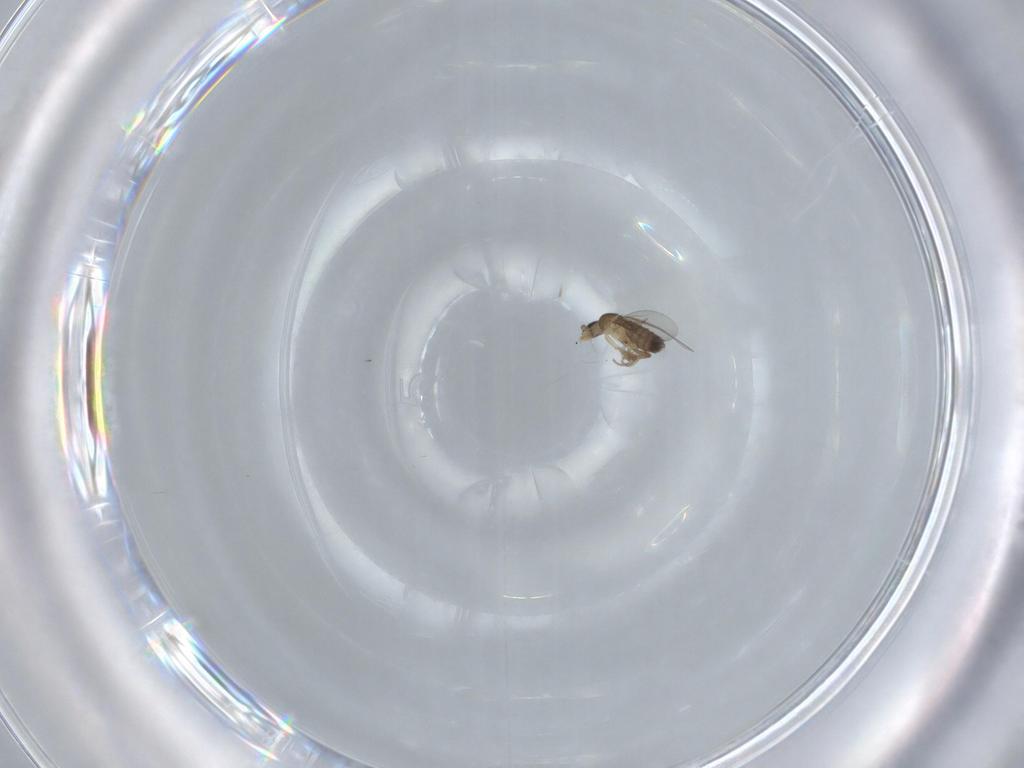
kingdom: Animalia
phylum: Arthropoda
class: Insecta
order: Diptera
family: Phoridae
